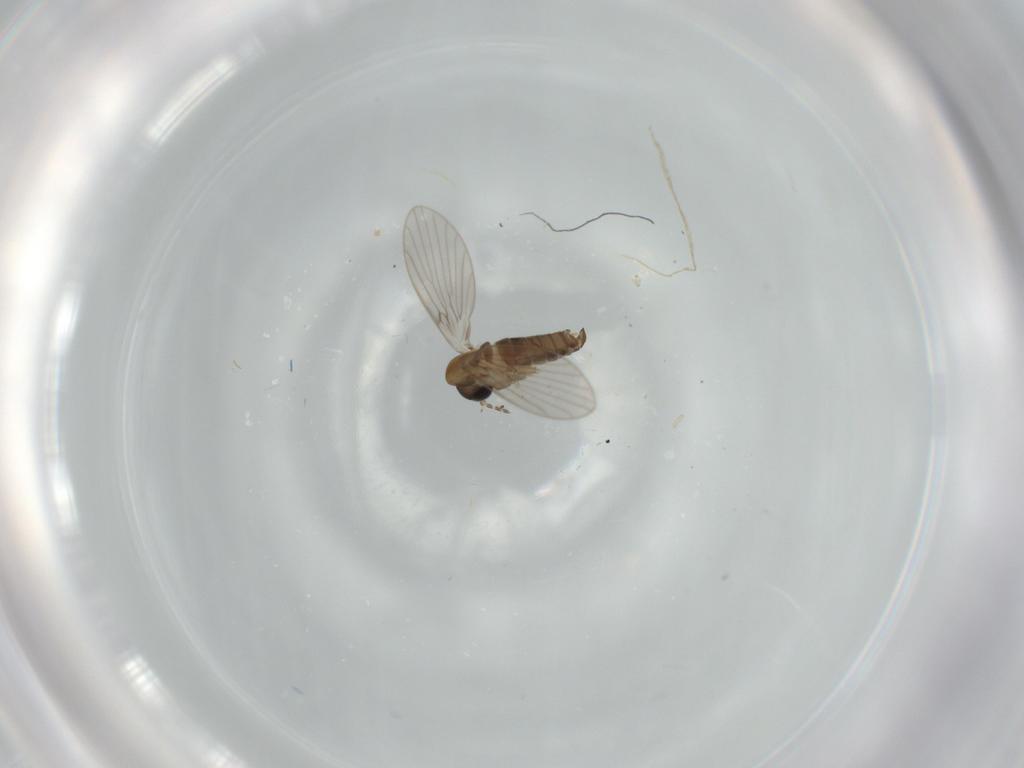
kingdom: Animalia
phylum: Arthropoda
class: Insecta
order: Diptera
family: Psychodidae
